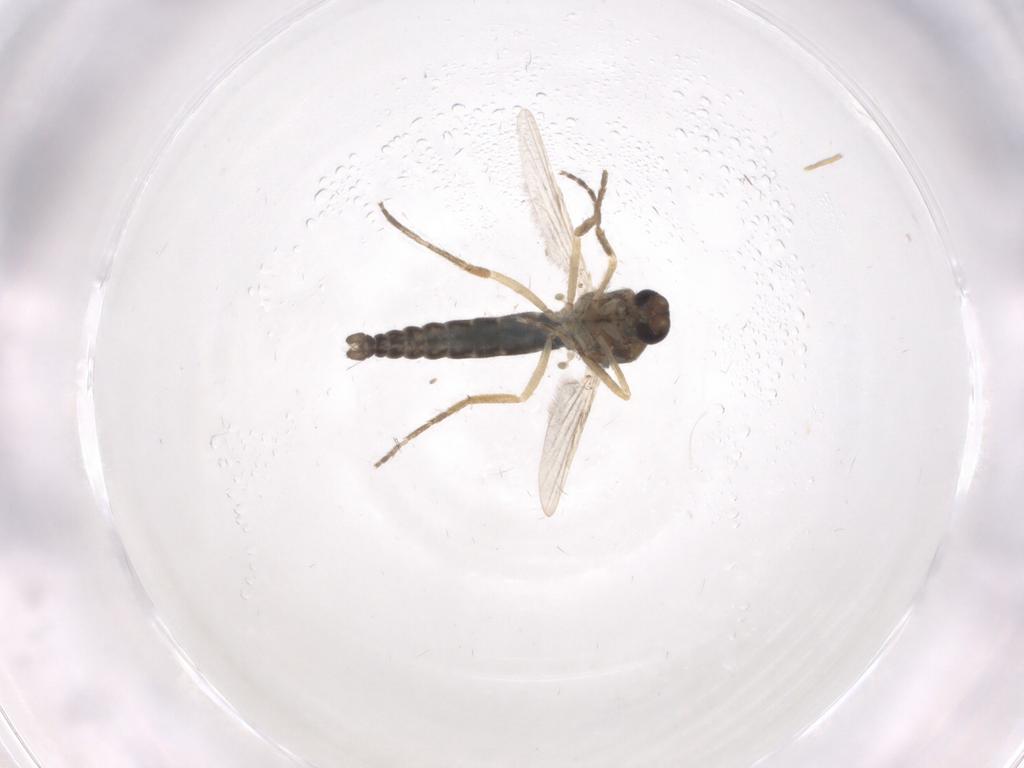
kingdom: Animalia
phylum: Arthropoda
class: Insecta
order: Diptera
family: Ceratopogonidae
